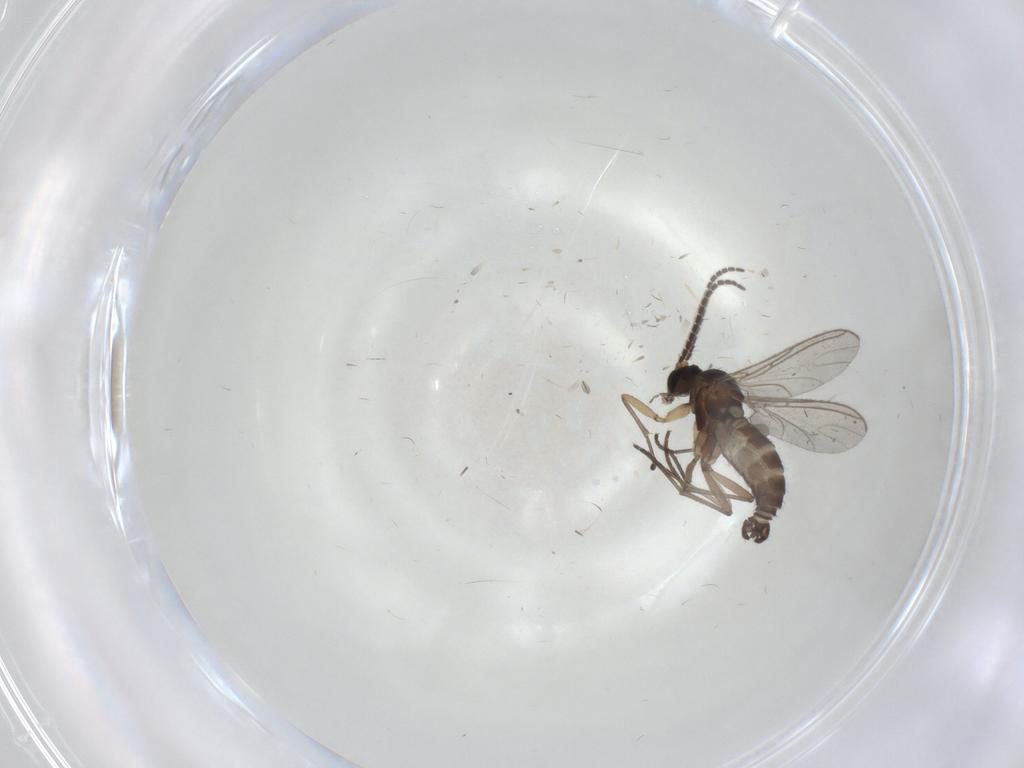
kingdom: Animalia
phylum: Arthropoda
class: Insecta
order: Diptera
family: Sciaridae
